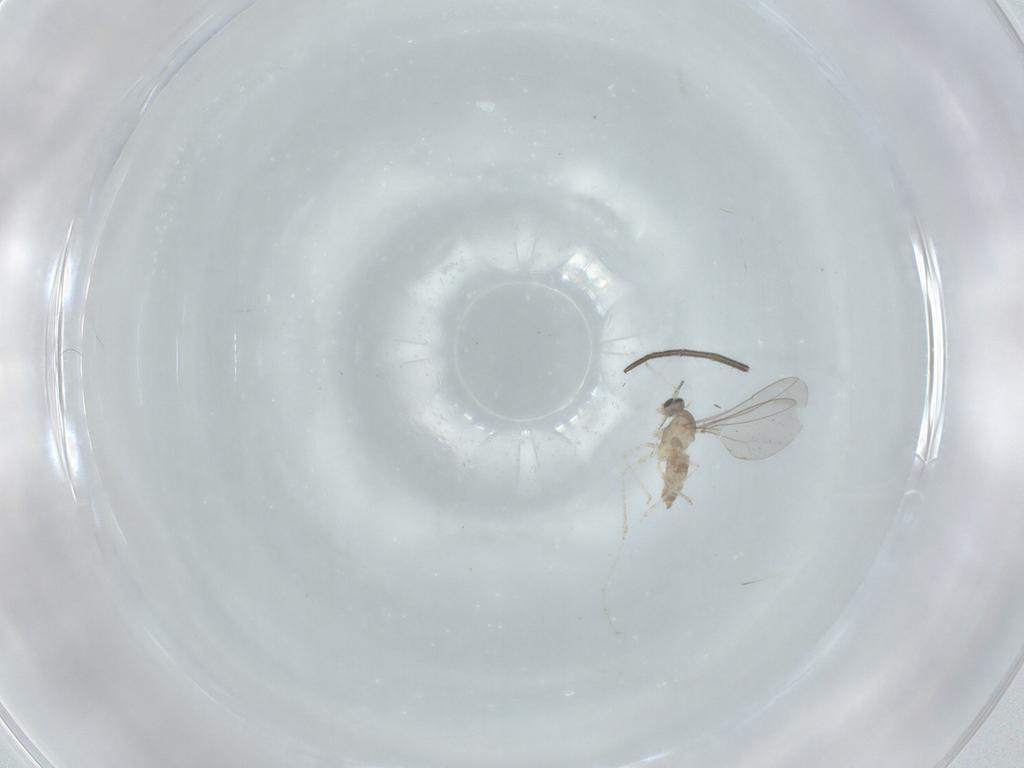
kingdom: Animalia
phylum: Arthropoda
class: Insecta
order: Diptera
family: Cecidomyiidae
